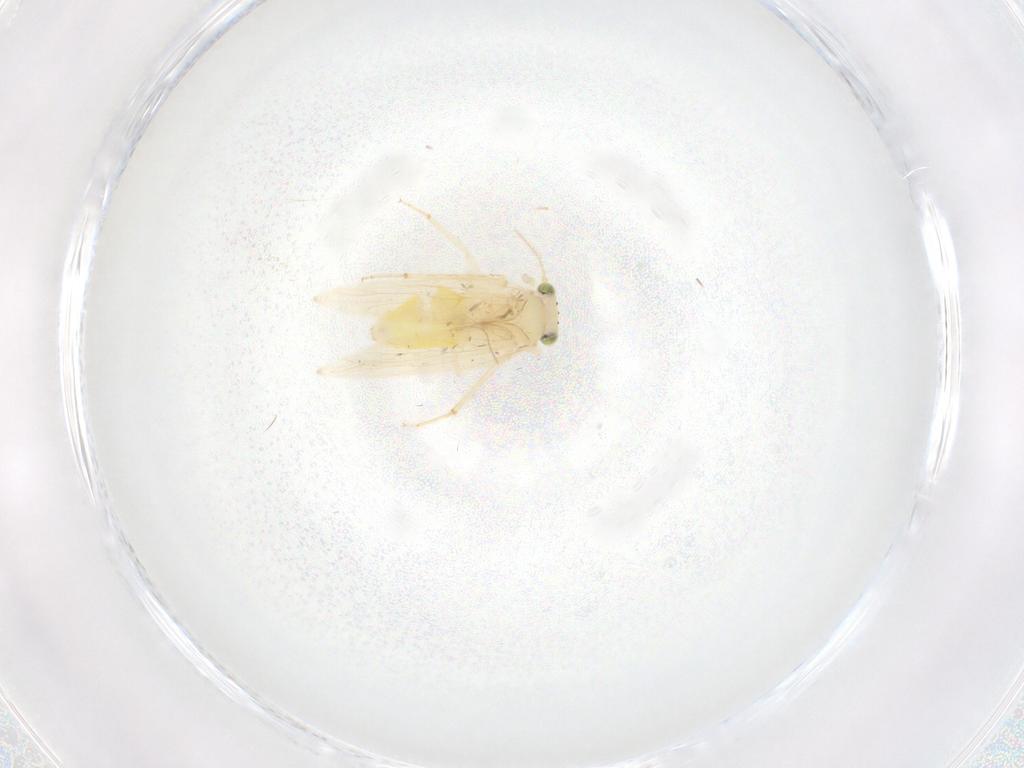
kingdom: Animalia
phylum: Arthropoda
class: Insecta
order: Psocodea
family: Lepidopsocidae
